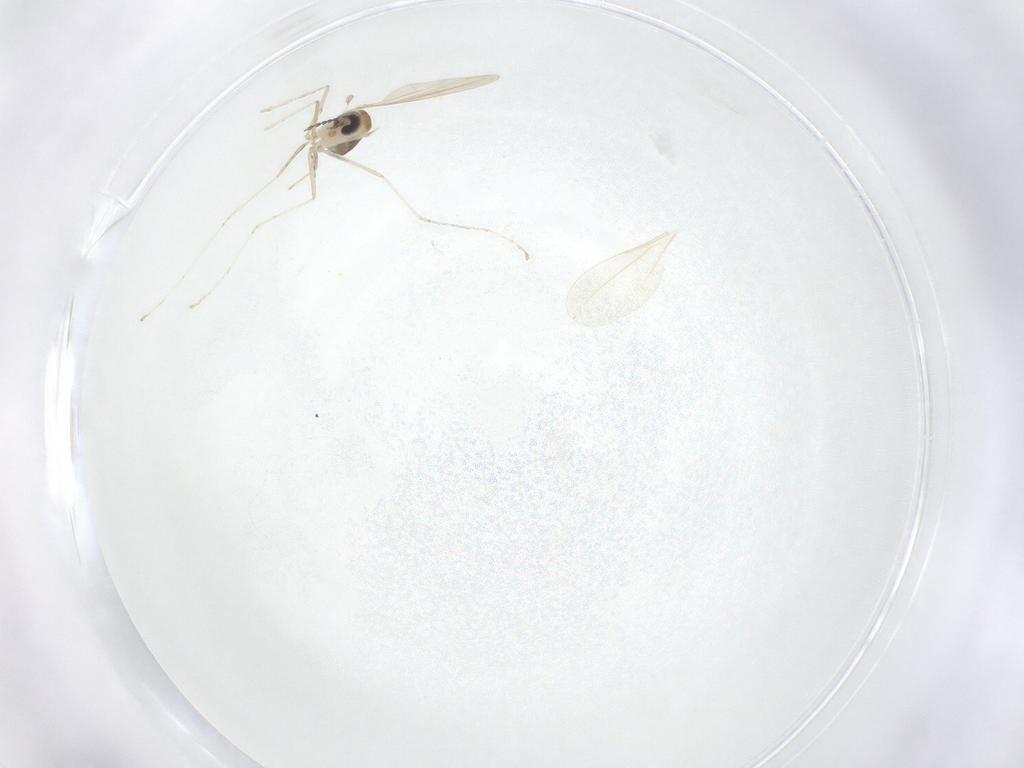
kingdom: Animalia
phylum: Arthropoda
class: Insecta
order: Diptera
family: Cecidomyiidae
